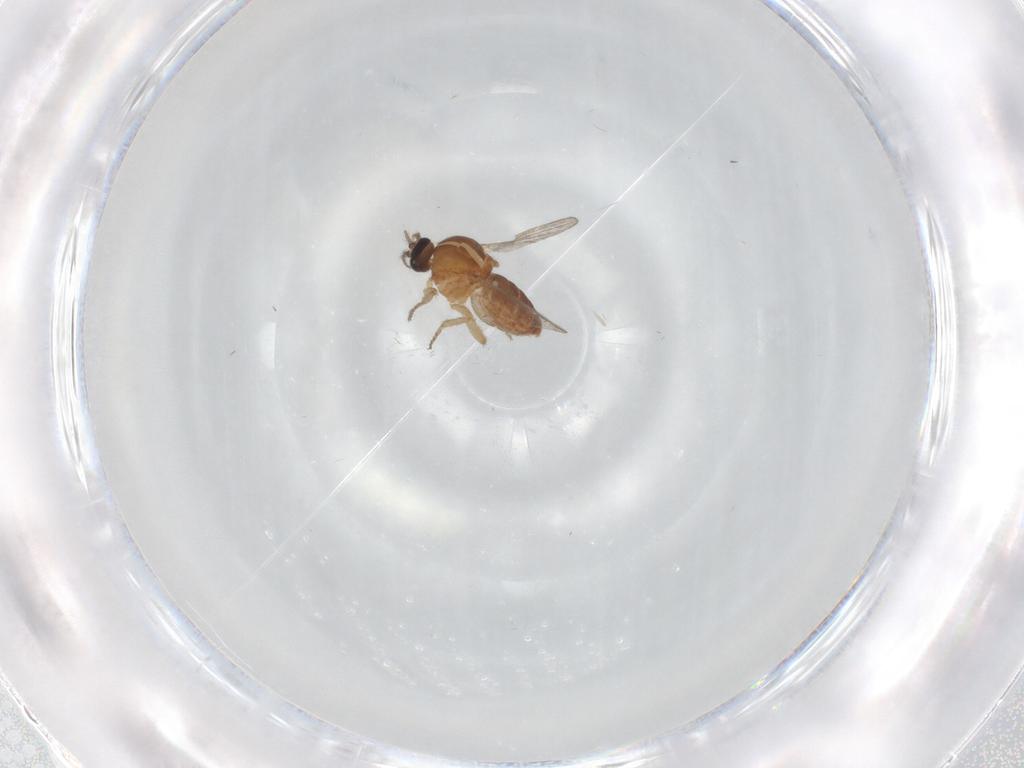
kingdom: Animalia
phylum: Arthropoda
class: Insecta
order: Diptera
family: Ceratopogonidae
